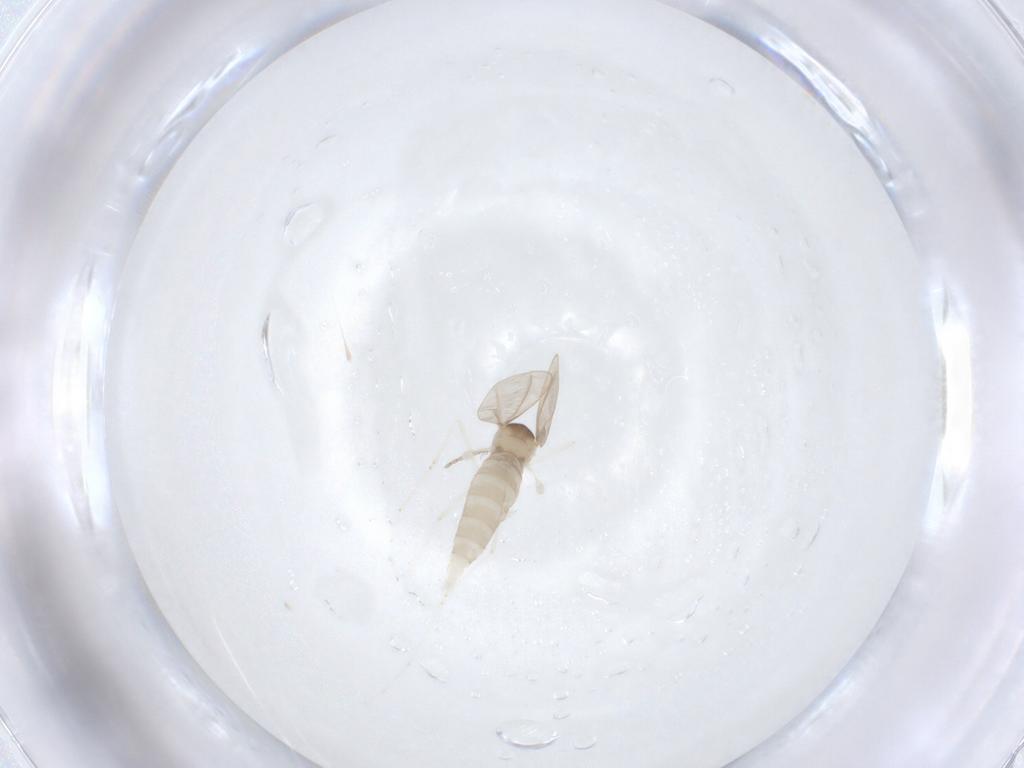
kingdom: Animalia
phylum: Arthropoda
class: Insecta
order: Diptera
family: Cecidomyiidae
